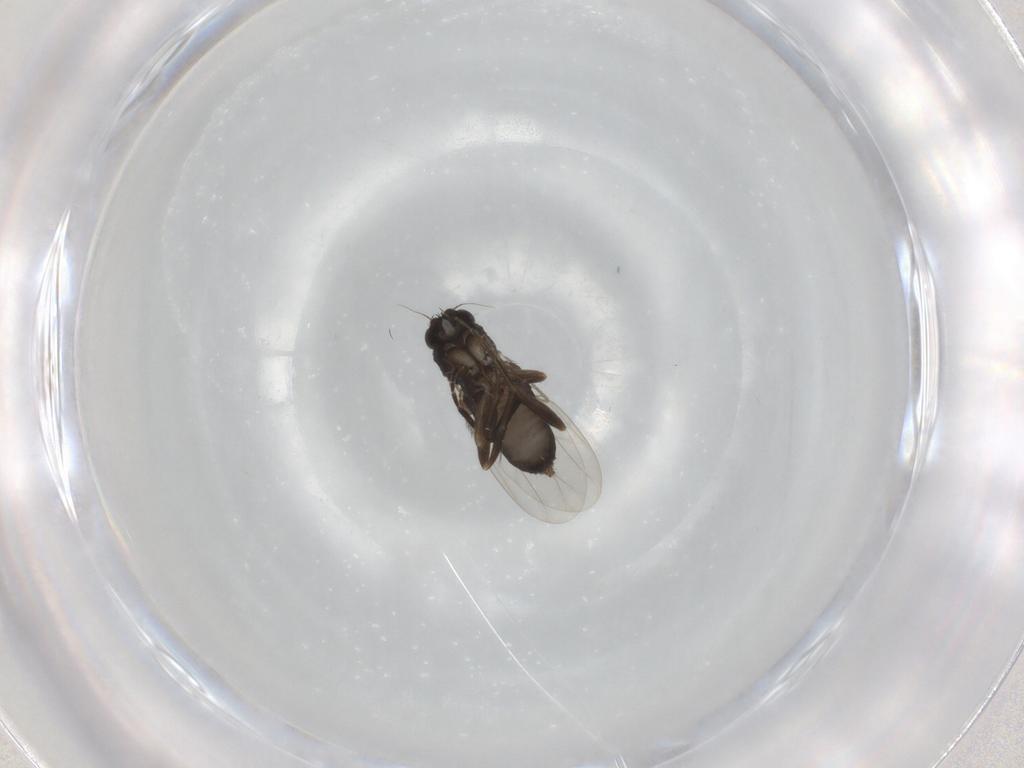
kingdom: Animalia
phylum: Arthropoda
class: Insecta
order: Diptera
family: Phoridae
